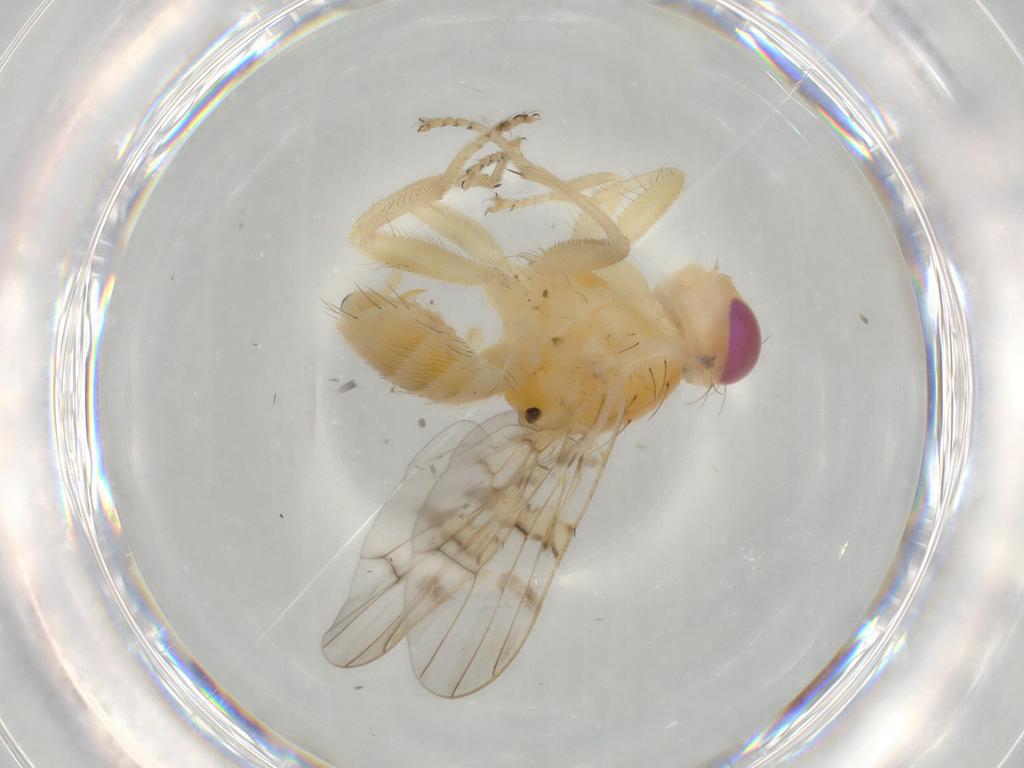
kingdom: Animalia
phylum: Arthropoda
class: Insecta
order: Diptera
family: Tephritidae
